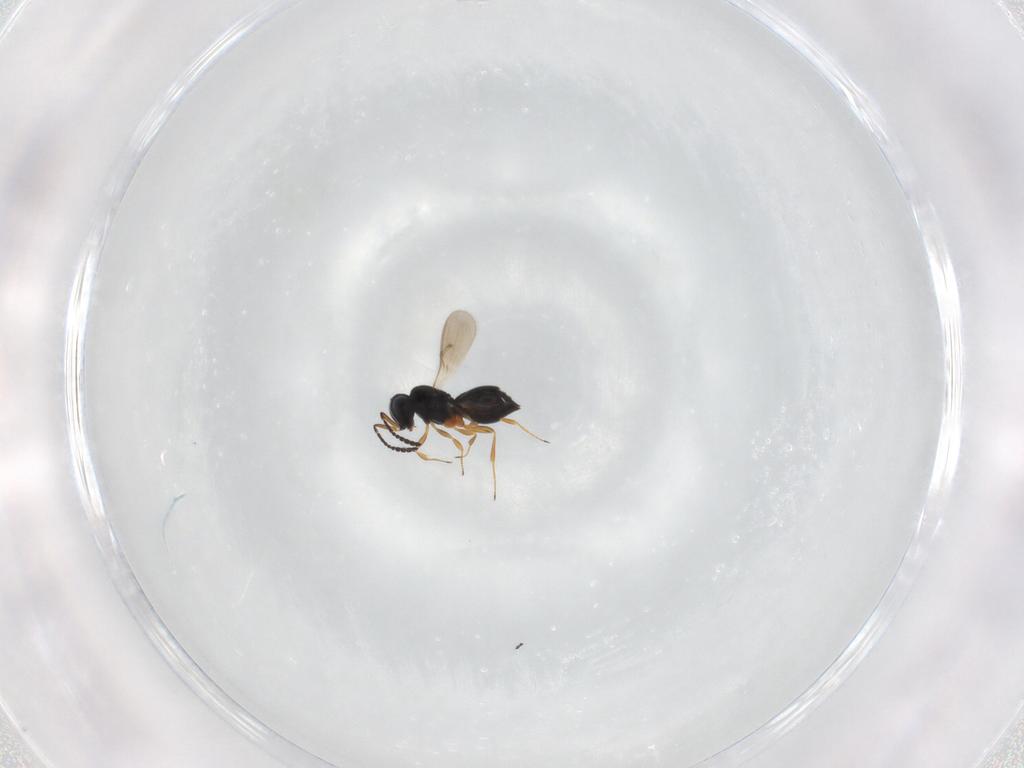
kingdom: Animalia
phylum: Arthropoda
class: Insecta
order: Hymenoptera
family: Scelionidae
